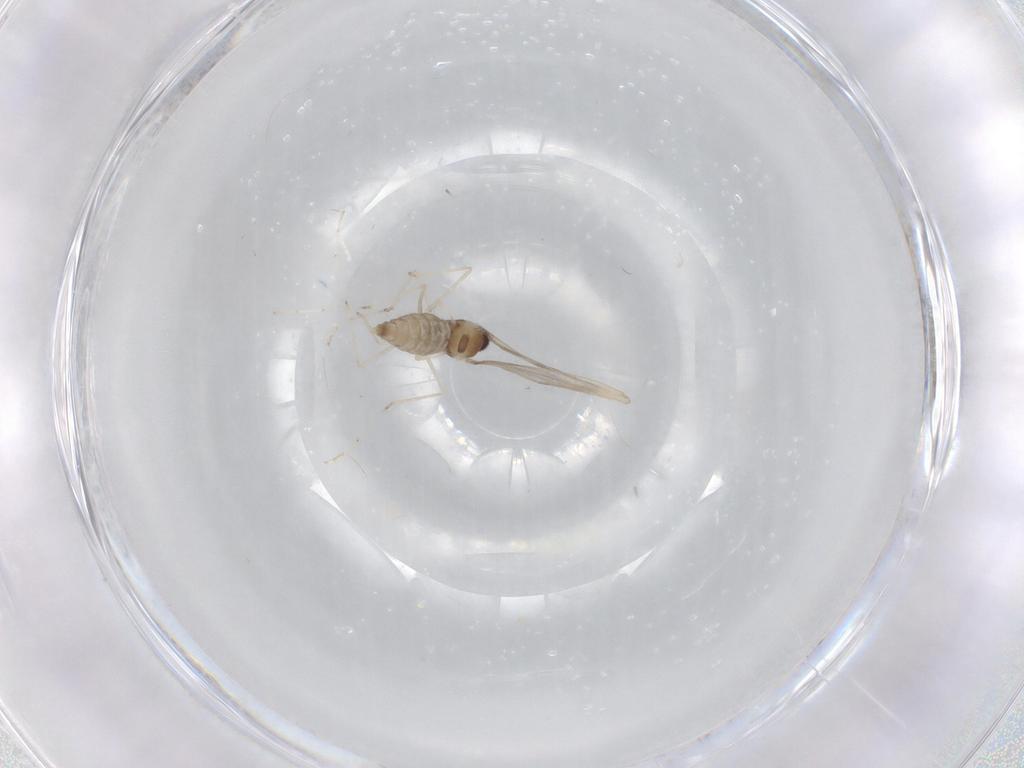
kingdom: Animalia
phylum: Arthropoda
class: Insecta
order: Diptera
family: Cecidomyiidae
